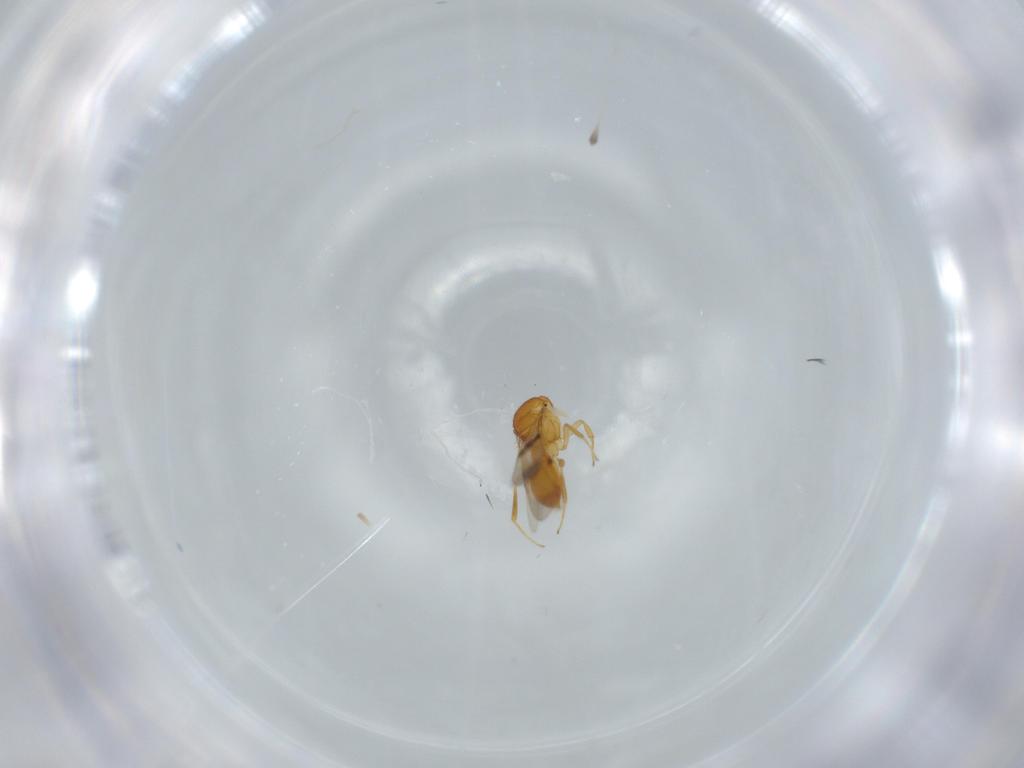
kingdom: Animalia
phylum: Arthropoda
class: Insecta
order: Hymenoptera
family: Scelionidae
